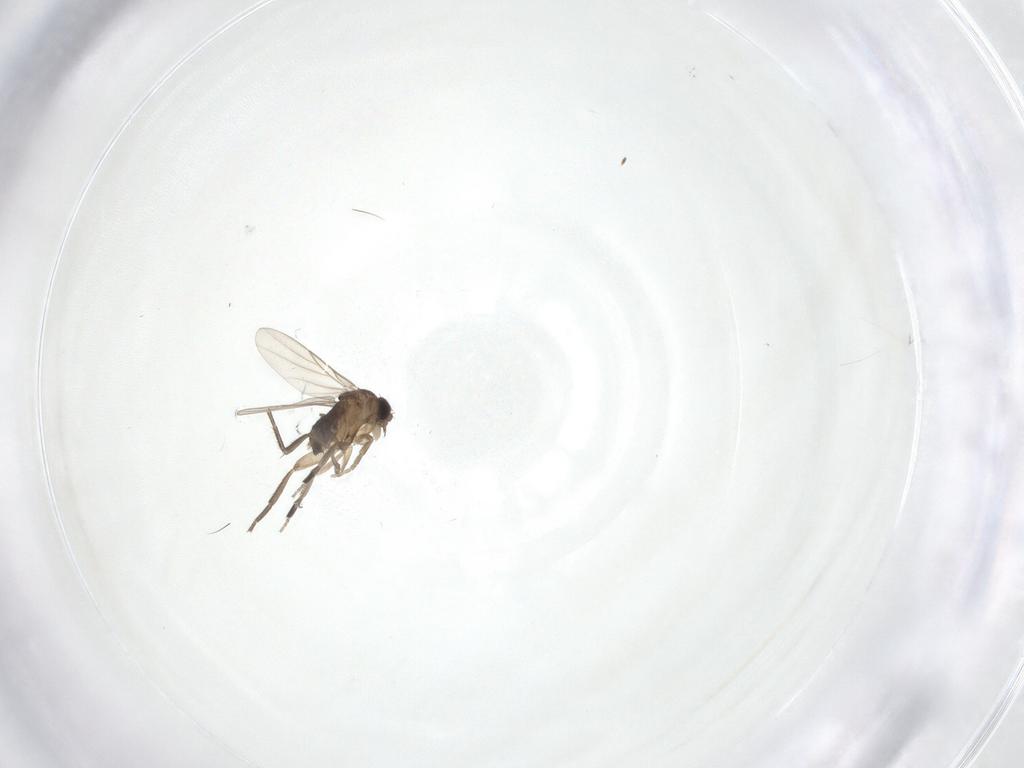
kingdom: Animalia
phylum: Arthropoda
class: Insecta
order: Diptera
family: Phoridae
